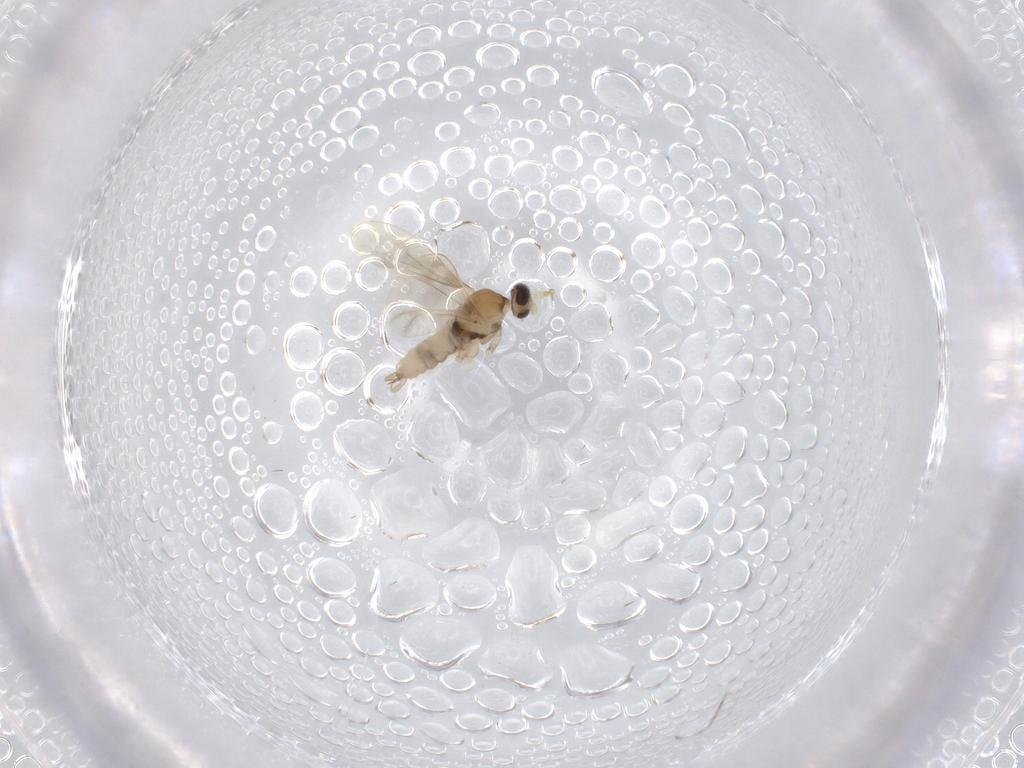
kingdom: Animalia
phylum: Arthropoda
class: Insecta
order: Diptera
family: Cecidomyiidae
